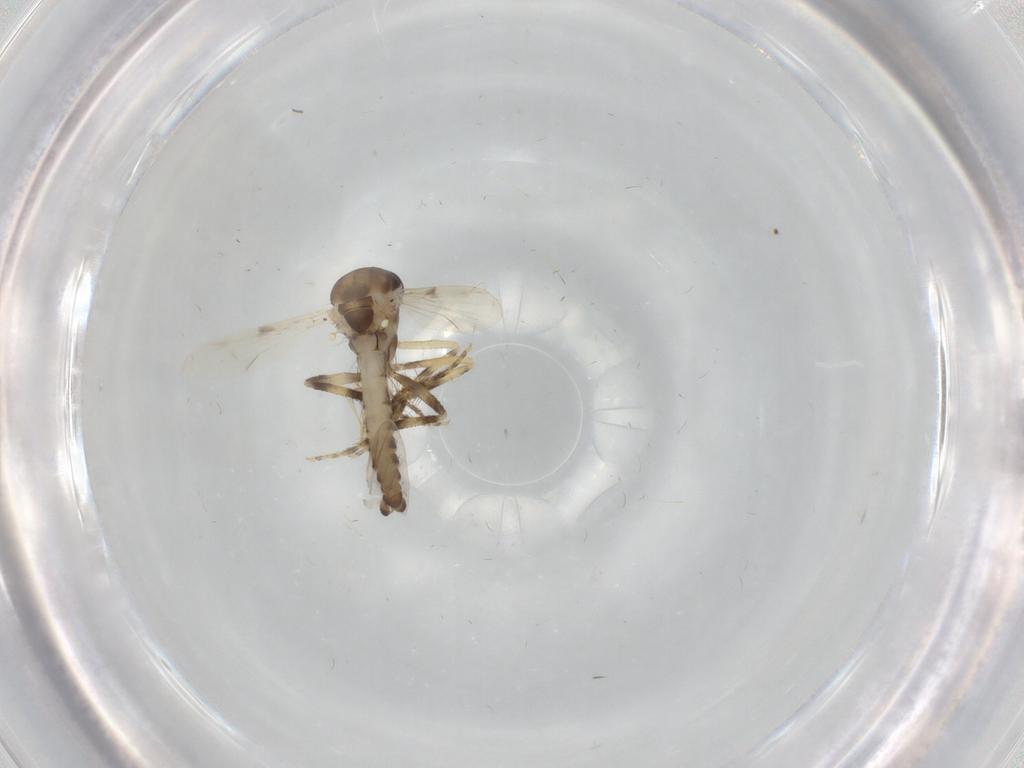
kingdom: Animalia
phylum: Arthropoda
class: Insecta
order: Diptera
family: Ceratopogonidae
